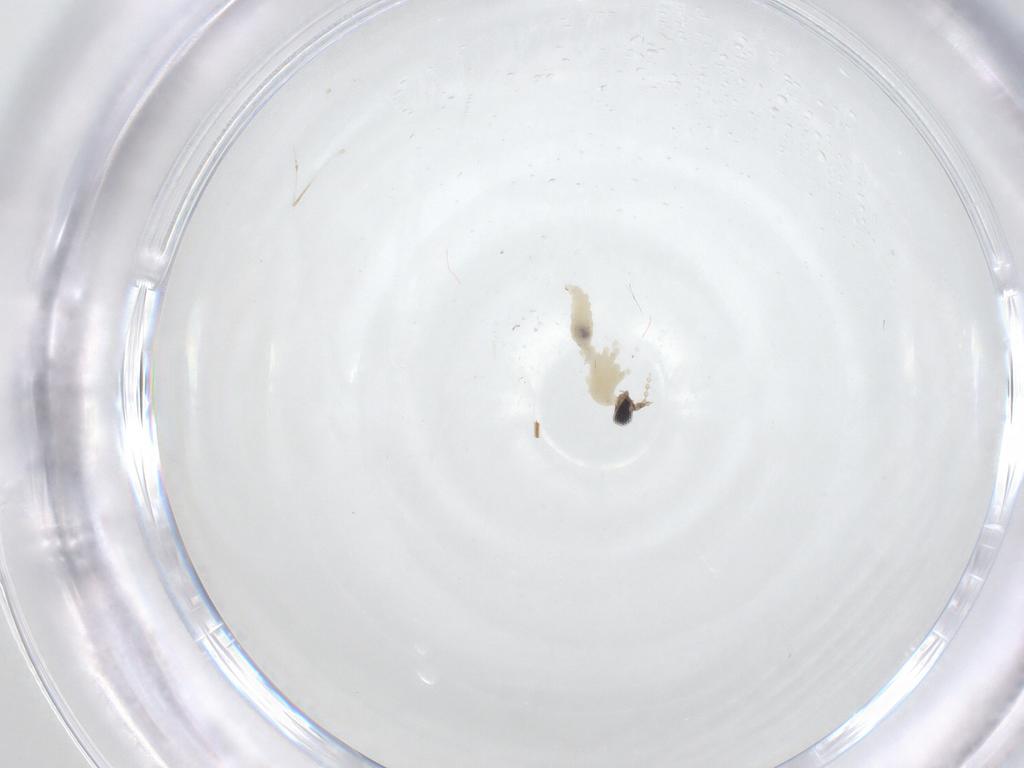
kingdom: Animalia
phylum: Arthropoda
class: Insecta
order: Diptera
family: Cecidomyiidae
